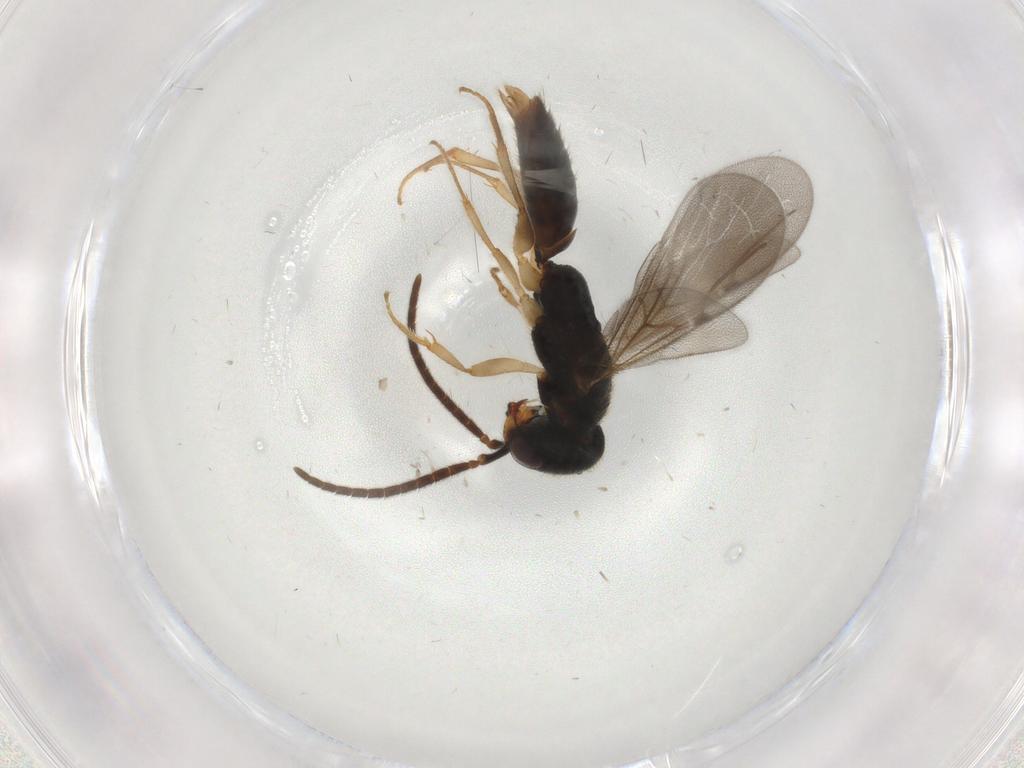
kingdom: Animalia
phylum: Arthropoda
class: Insecta
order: Hymenoptera
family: Bethylidae
